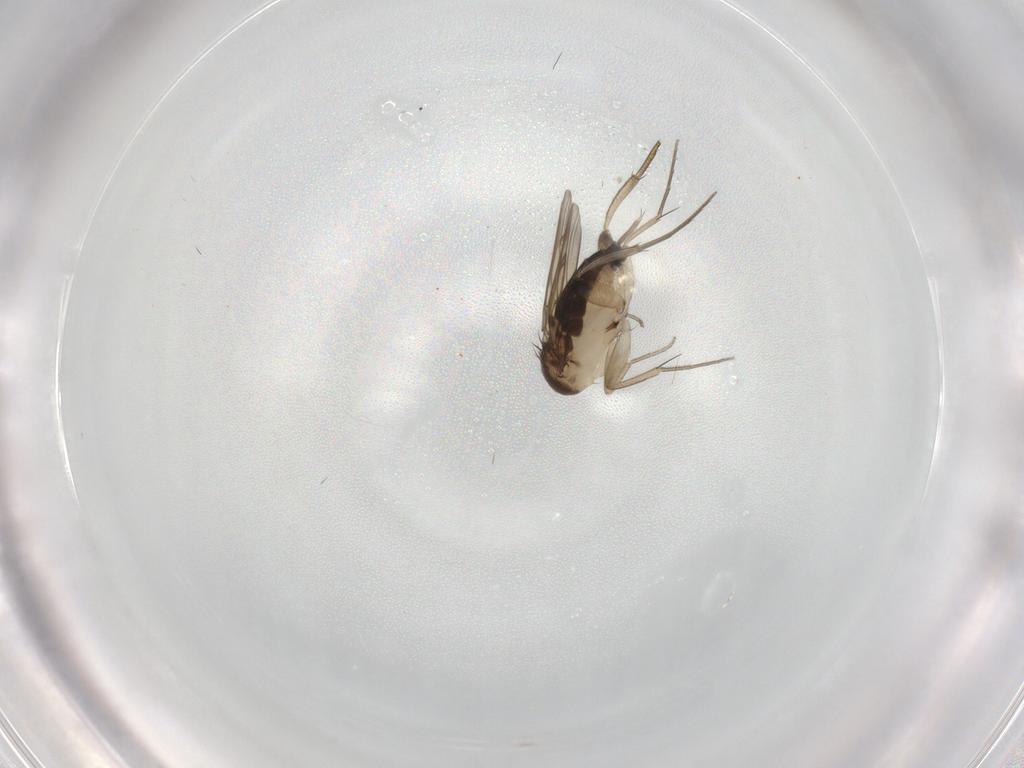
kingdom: Animalia
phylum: Arthropoda
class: Insecta
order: Diptera
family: Phoridae
